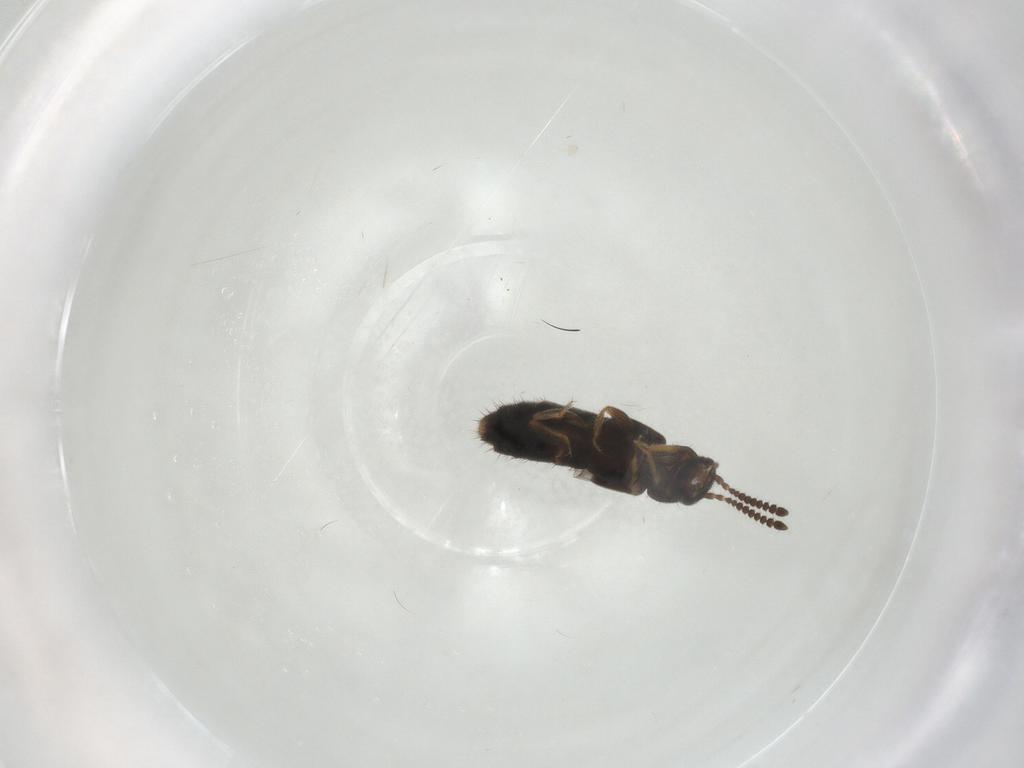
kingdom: Animalia
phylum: Arthropoda
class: Insecta
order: Coleoptera
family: Staphylinidae
